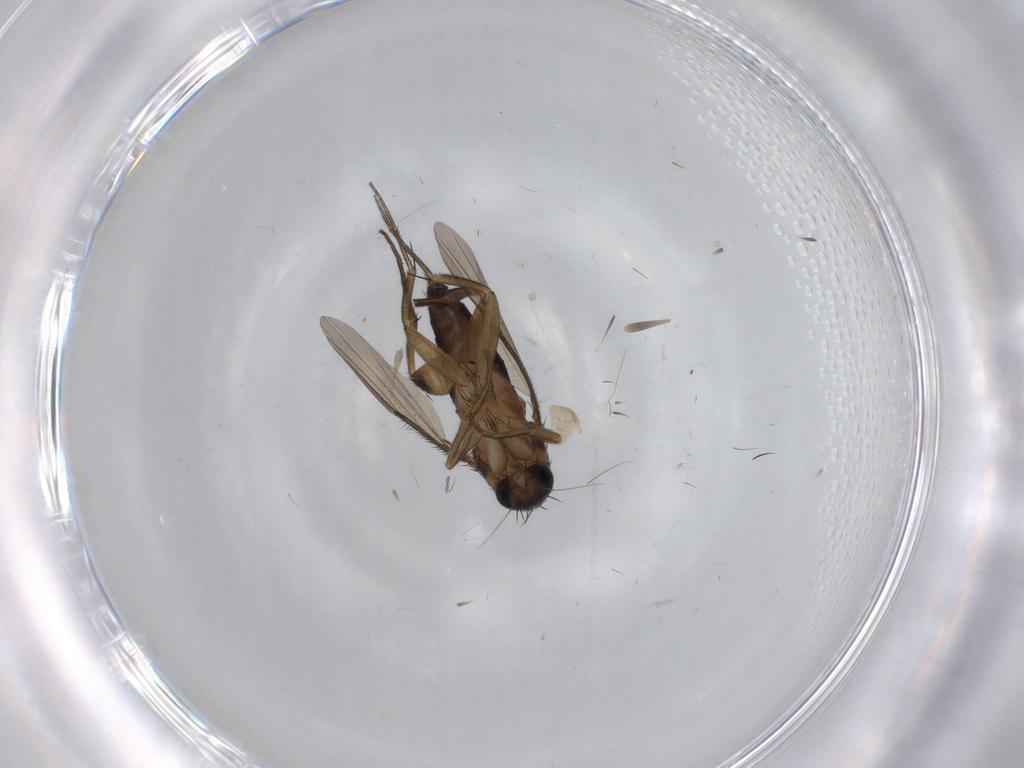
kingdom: Animalia
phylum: Arthropoda
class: Insecta
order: Diptera
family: Phoridae
